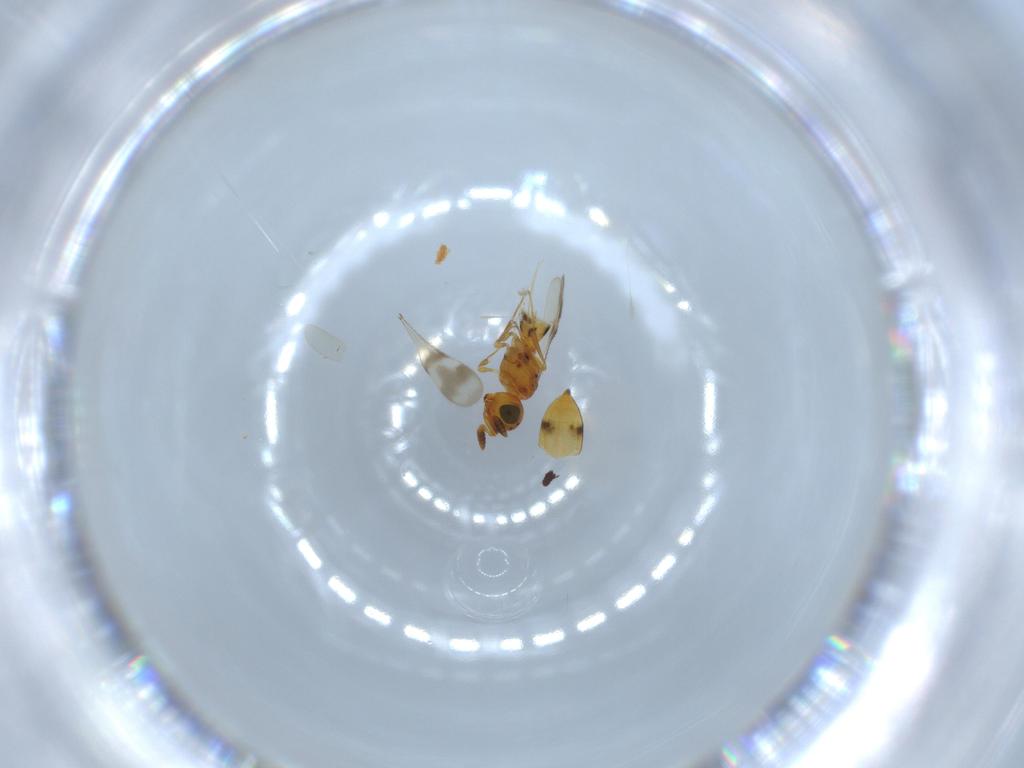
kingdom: Animalia
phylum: Arthropoda
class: Insecta
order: Hymenoptera
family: Formicidae
